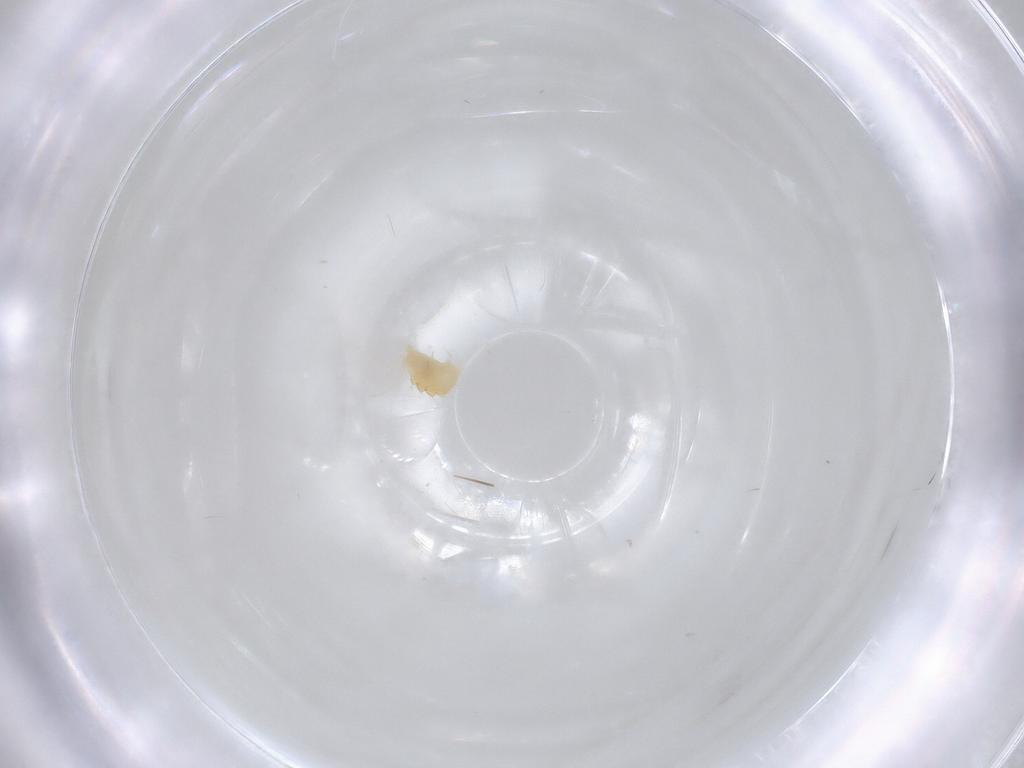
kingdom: Animalia
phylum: Arthropoda
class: Arachnida
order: Trombidiformes
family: Tetranychidae
